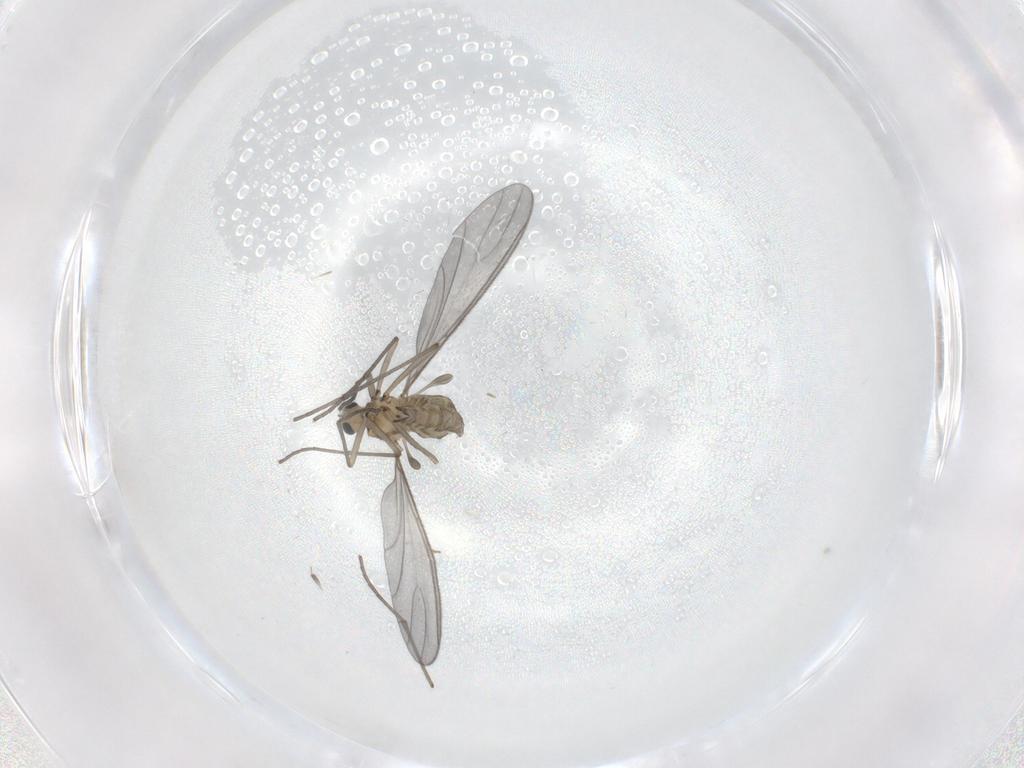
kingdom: Animalia
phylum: Arthropoda
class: Insecta
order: Diptera
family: Sciaridae
